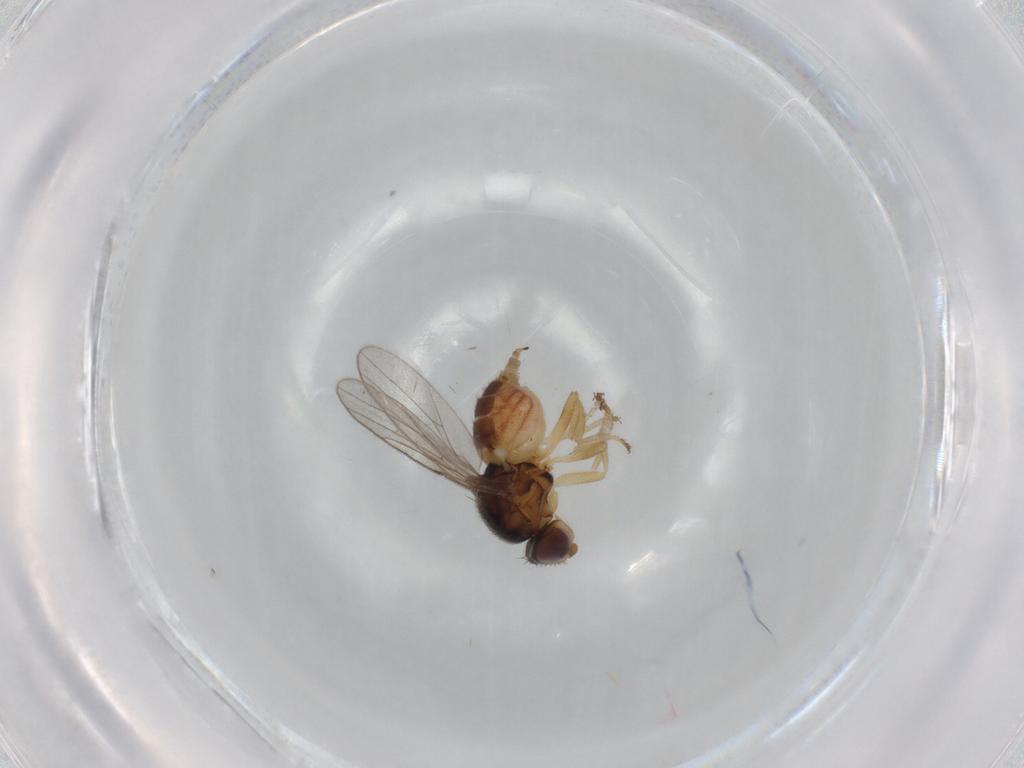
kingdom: Animalia
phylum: Arthropoda
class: Insecta
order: Diptera
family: Chloropidae
